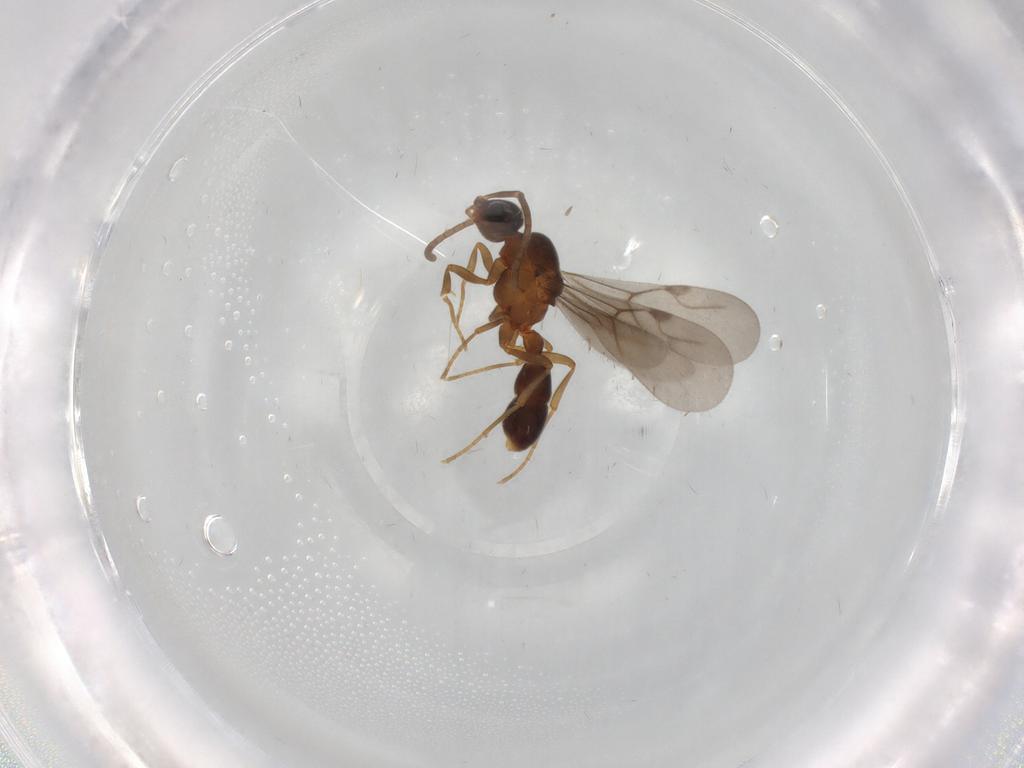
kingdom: Animalia
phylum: Arthropoda
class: Insecta
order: Hymenoptera
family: Formicidae
